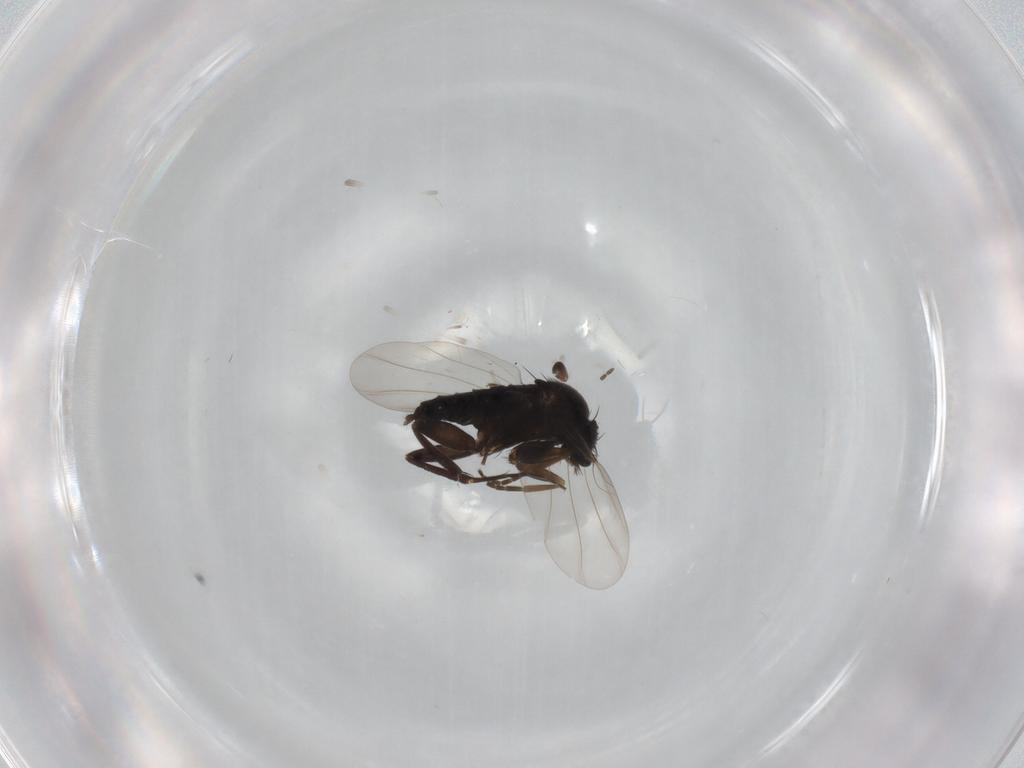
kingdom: Animalia
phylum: Arthropoda
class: Insecta
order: Diptera
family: Phoridae
